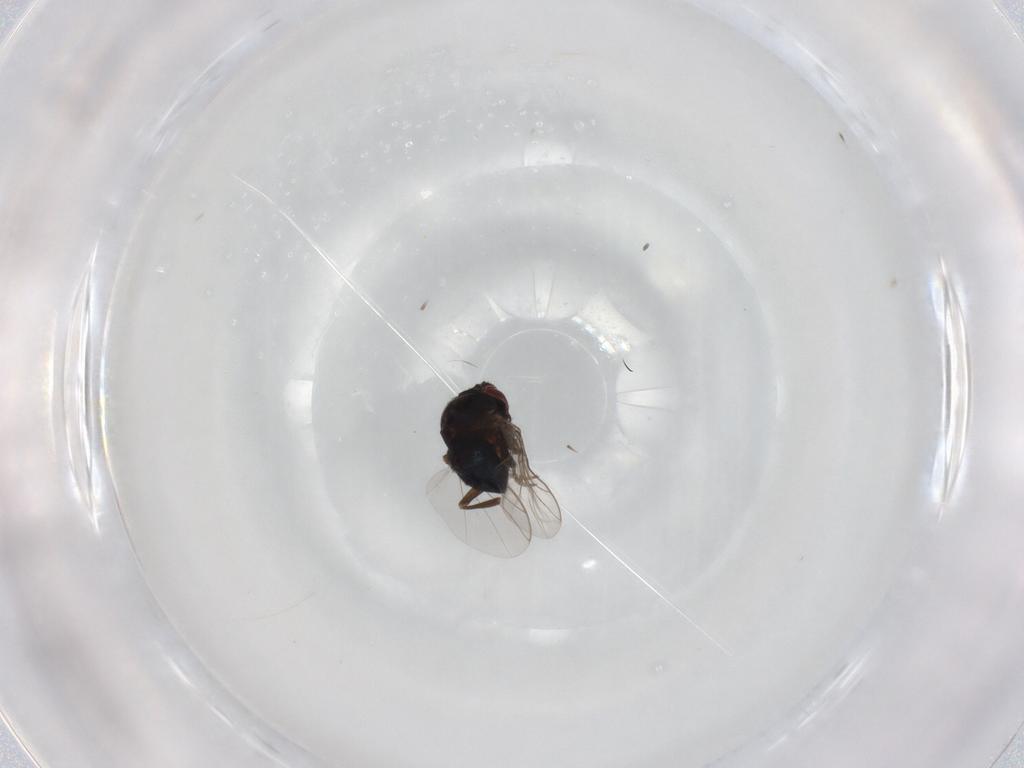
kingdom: Animalia
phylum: Arthropoda
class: Insecta
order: Diptera
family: Cryptochetidae
